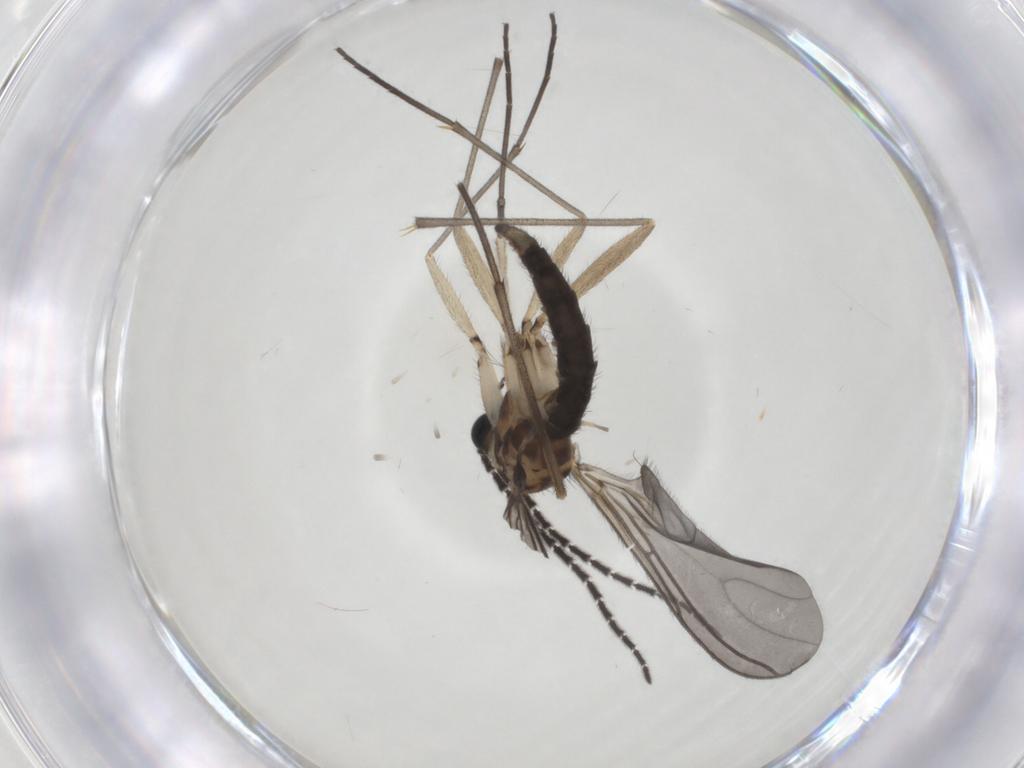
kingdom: Animalia
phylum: Arthropoda
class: Insecta
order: Diptera
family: Sciaridae
